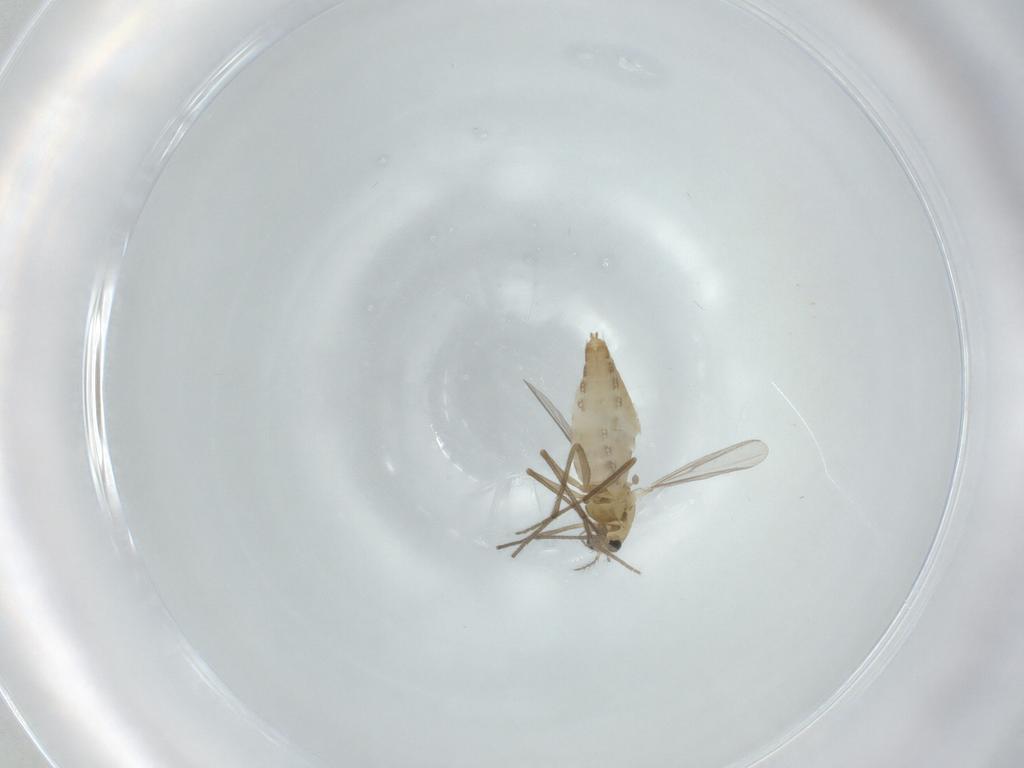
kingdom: Animalia
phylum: Arthropoda
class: Insecta
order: Diptera
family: Chironomidae
